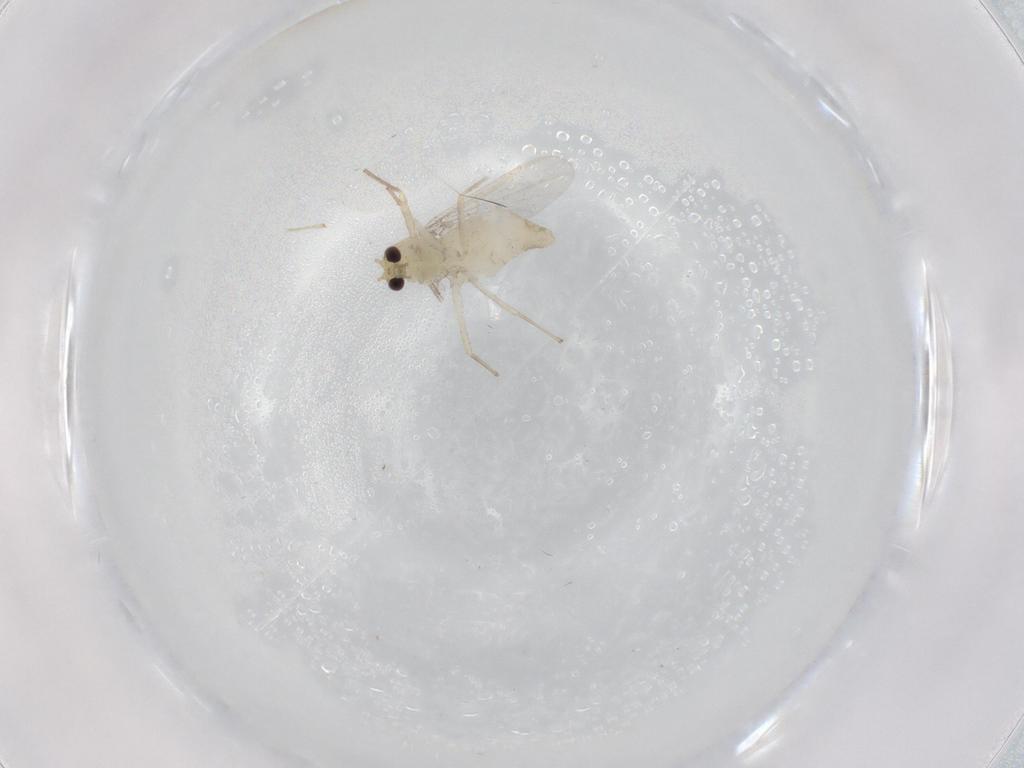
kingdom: Animalia
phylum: Arthropoda
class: Insecta
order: Diptera
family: Chironomidae
